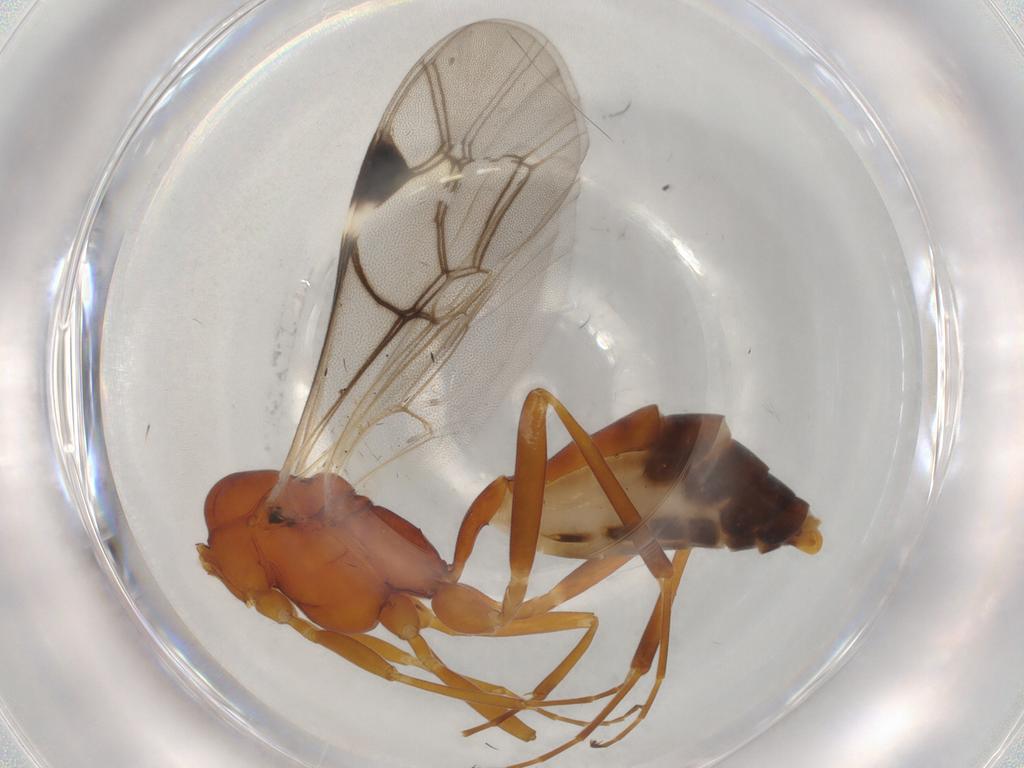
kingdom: Animalia
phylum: Arthropoda
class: Insecta
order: Hymenoptera
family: Ichneumonidae
